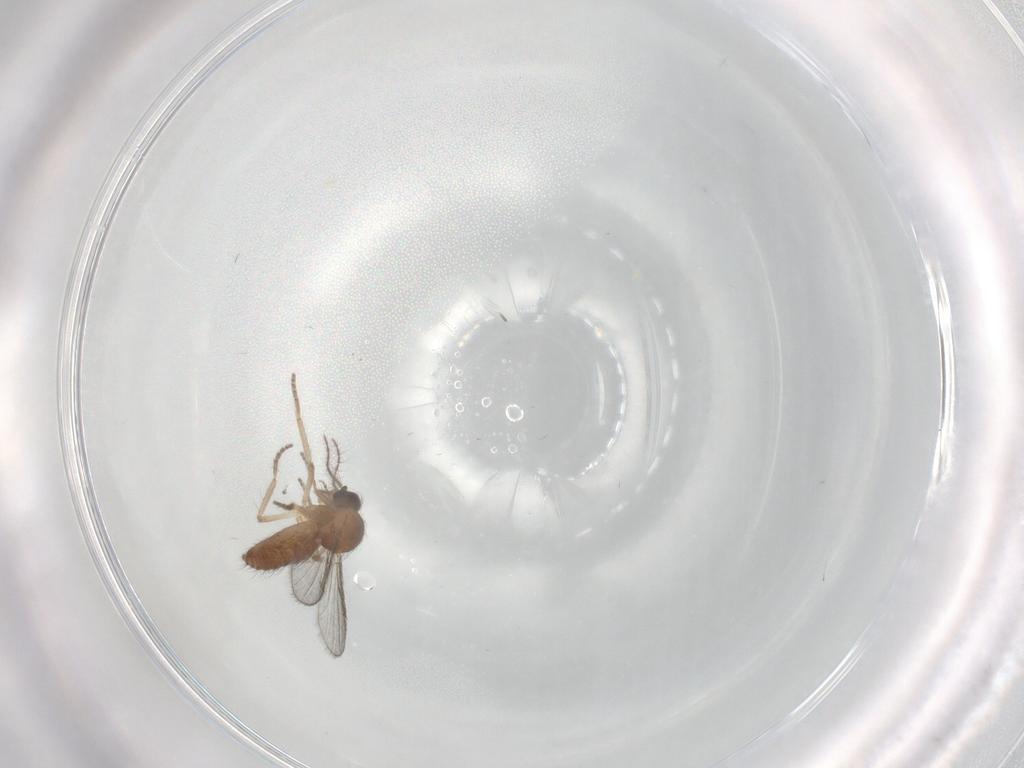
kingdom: Animalia
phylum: Arthropoda
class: Insecta
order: Diptera
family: Ceratopogonidae
